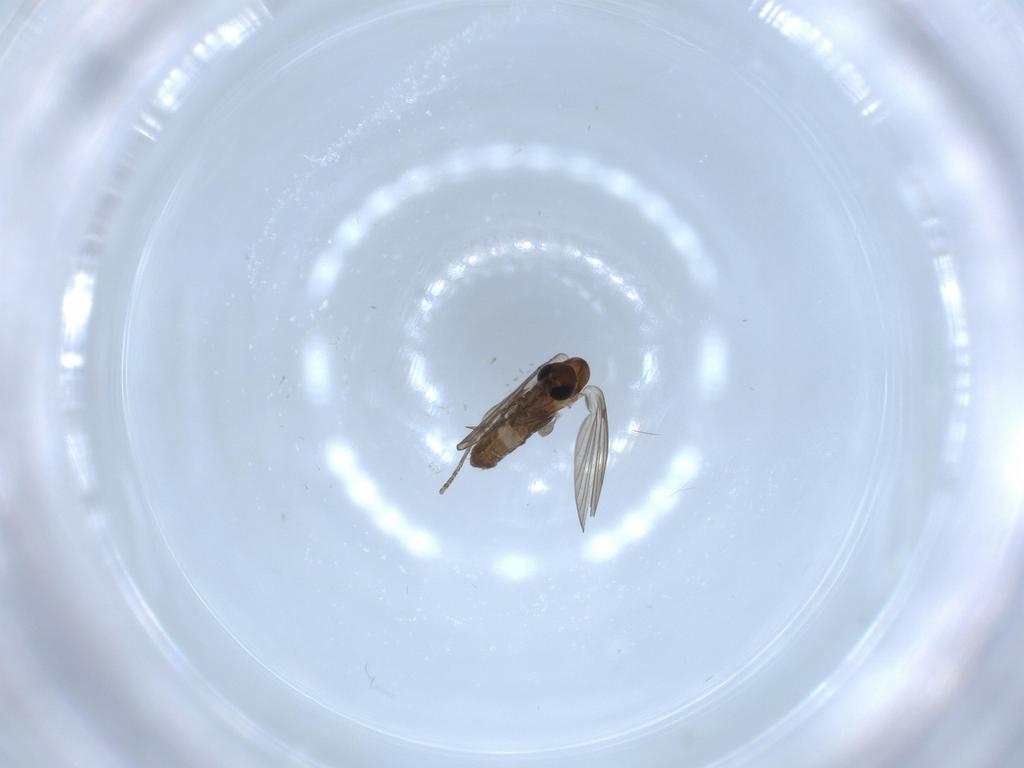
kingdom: Animalia
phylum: Arthropoda
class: Insecta
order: Diptera
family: Psychodidae
